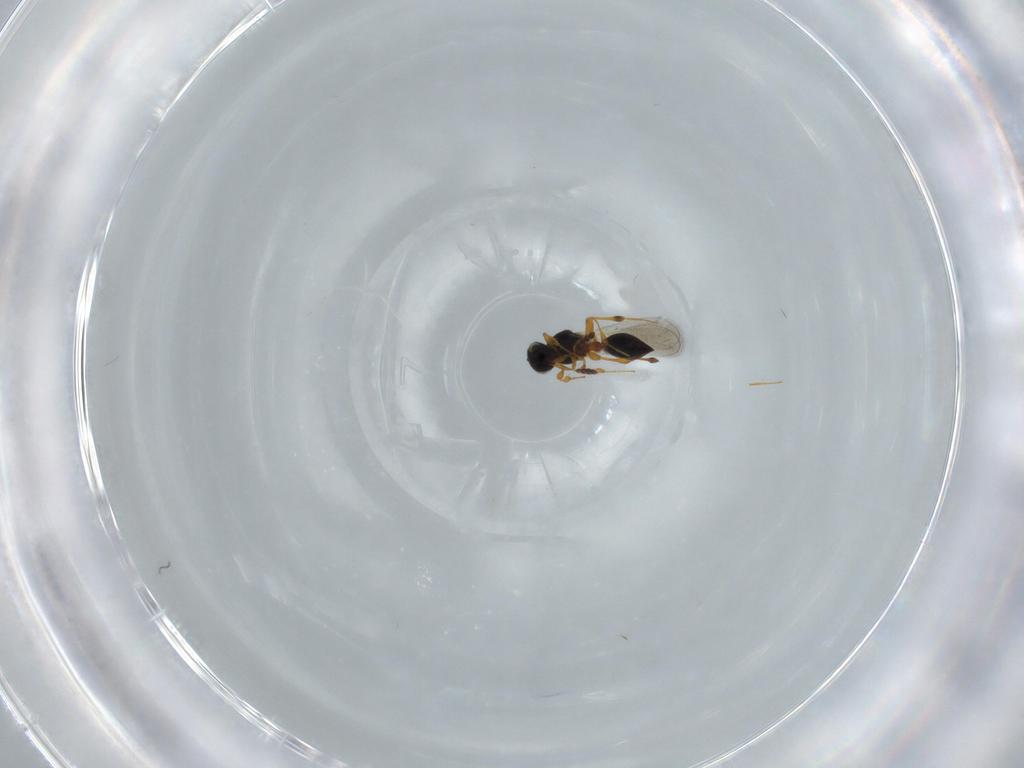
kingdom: Animalia
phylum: Arthropoda
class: Insecta
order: Hymenoptera
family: Platygastridae
